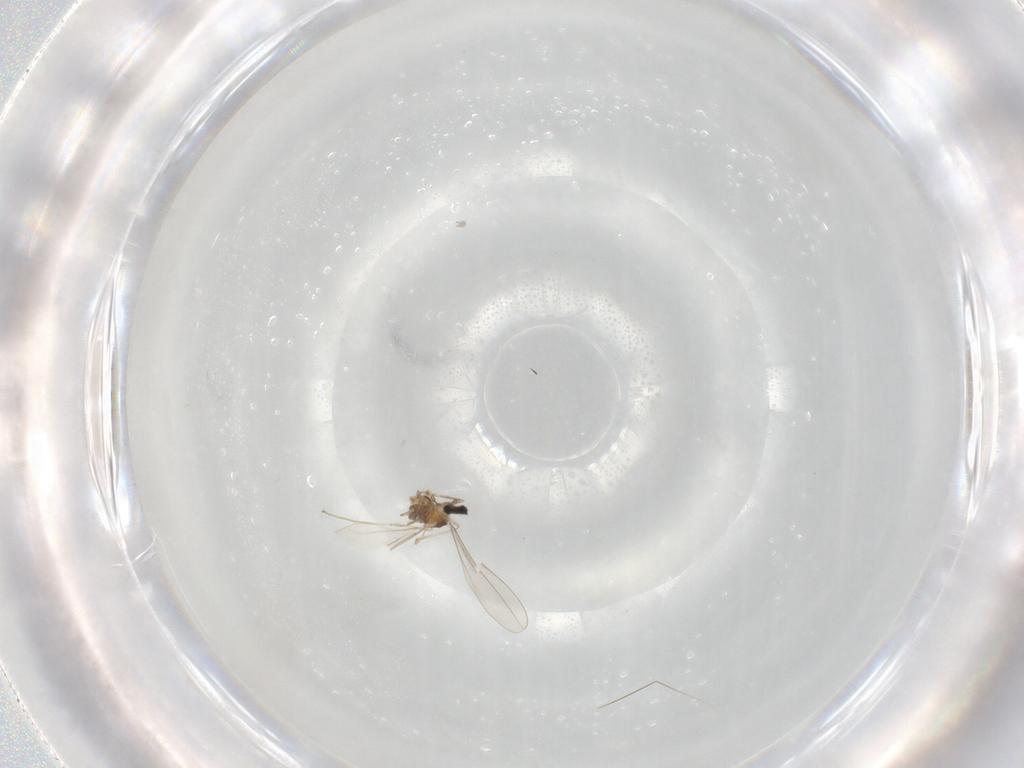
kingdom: Animalia
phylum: Arthropoda
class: Insecta
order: Diptera
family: Cecidomyiidae
